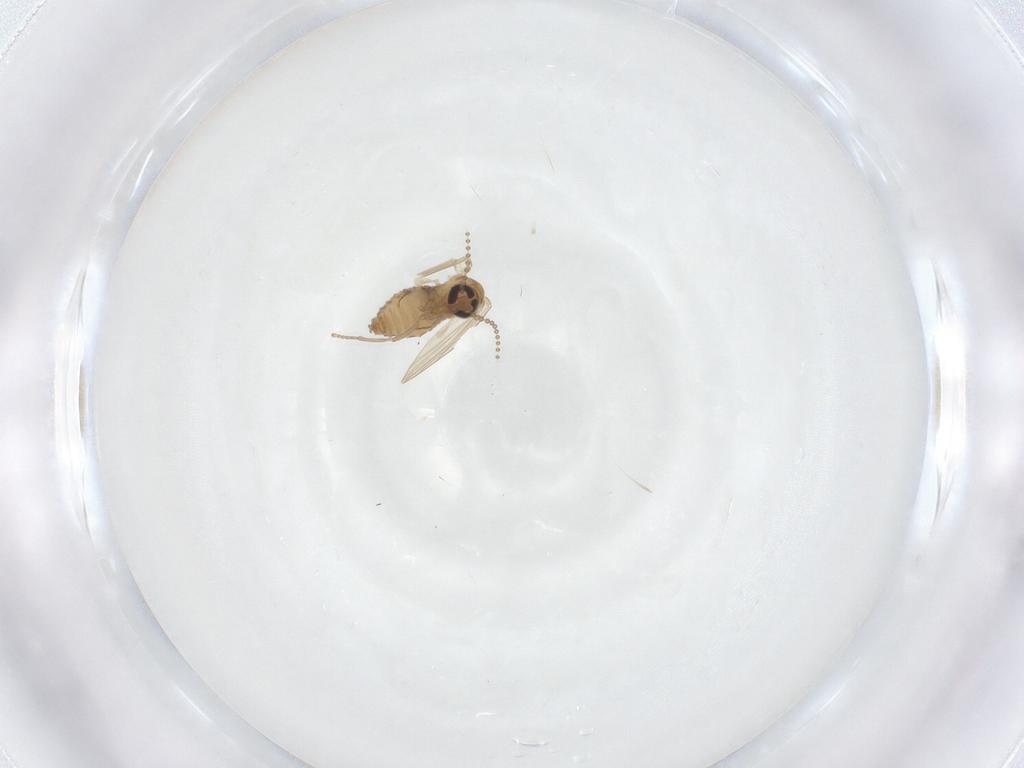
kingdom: Animalia
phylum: Arthropoda
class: Insecta
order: Diptera
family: Psychodidae
